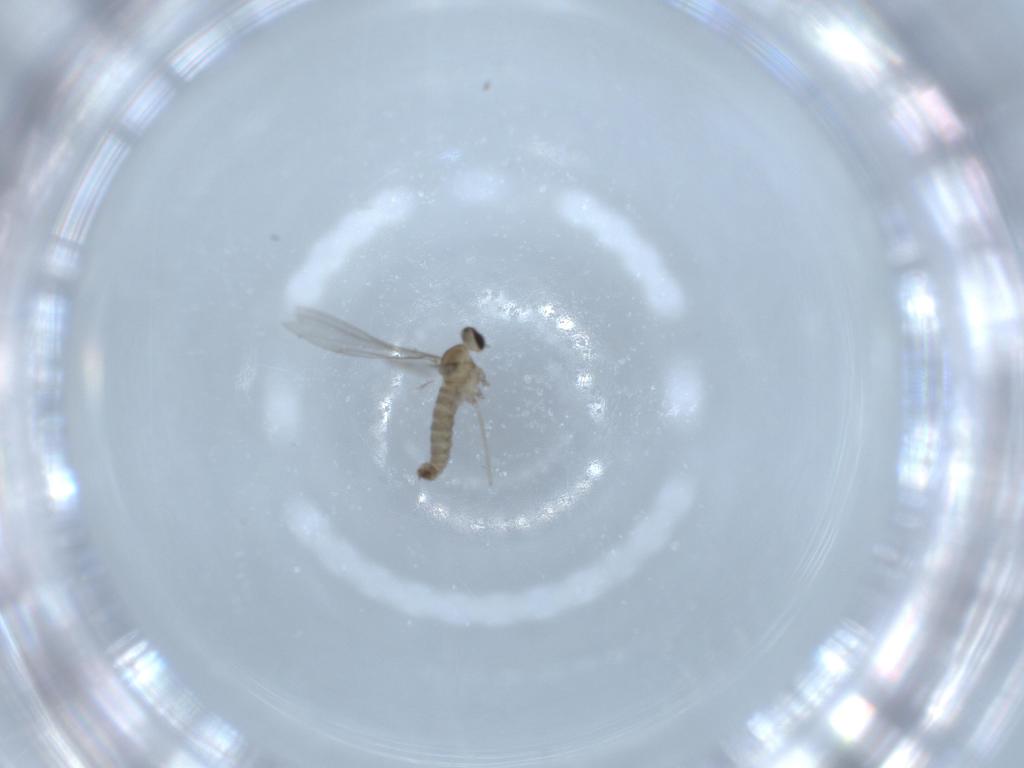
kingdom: Animalia
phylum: Arthropoda
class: Insecta
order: Diptera
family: Cecidomyiidae
